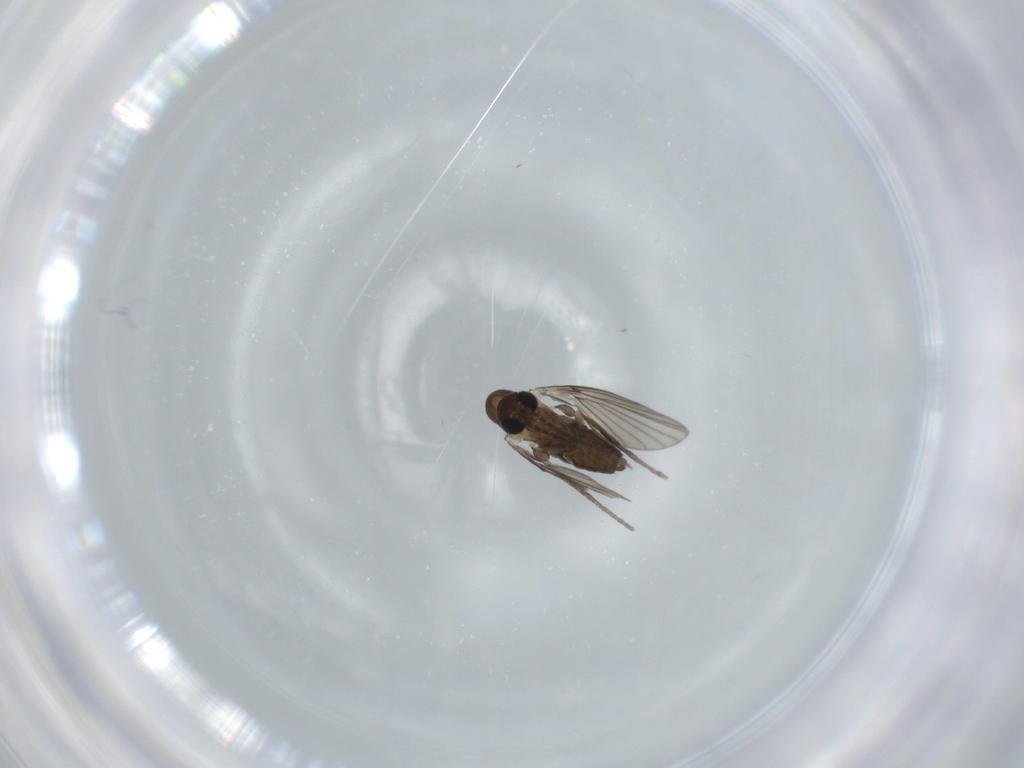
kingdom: Animalia
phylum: Arthropoda
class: Insecta
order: Diptera
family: Psychodidae
